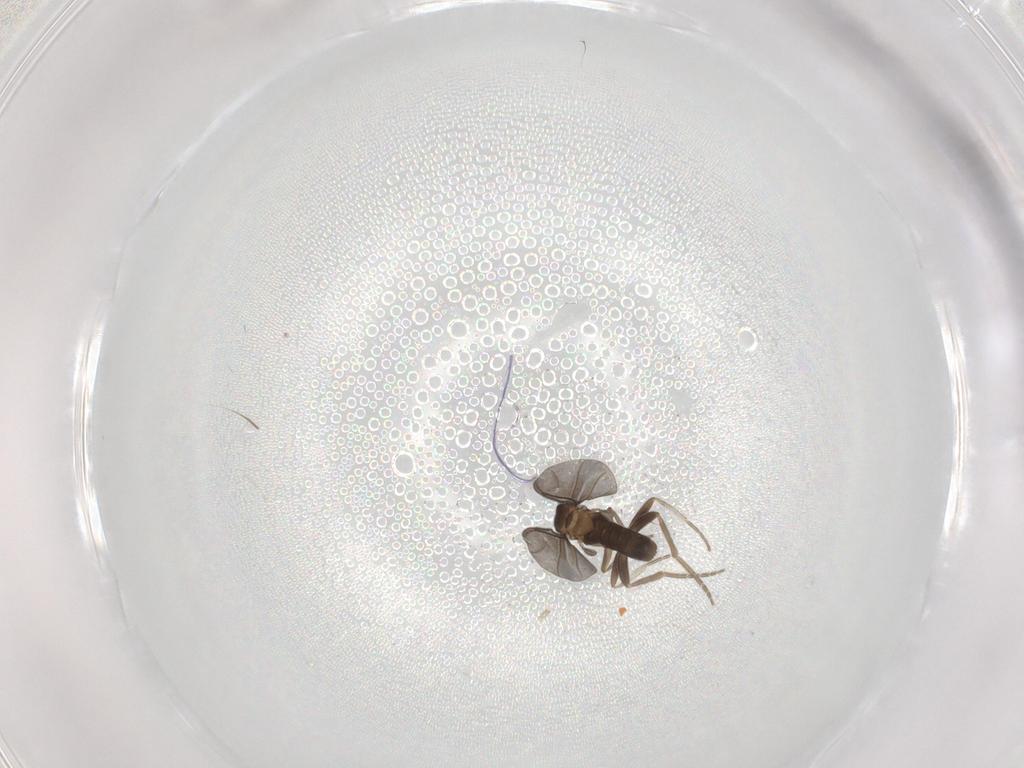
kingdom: Animalia
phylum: Arthropoda
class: Insecta
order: Diptera
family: Phoridae
